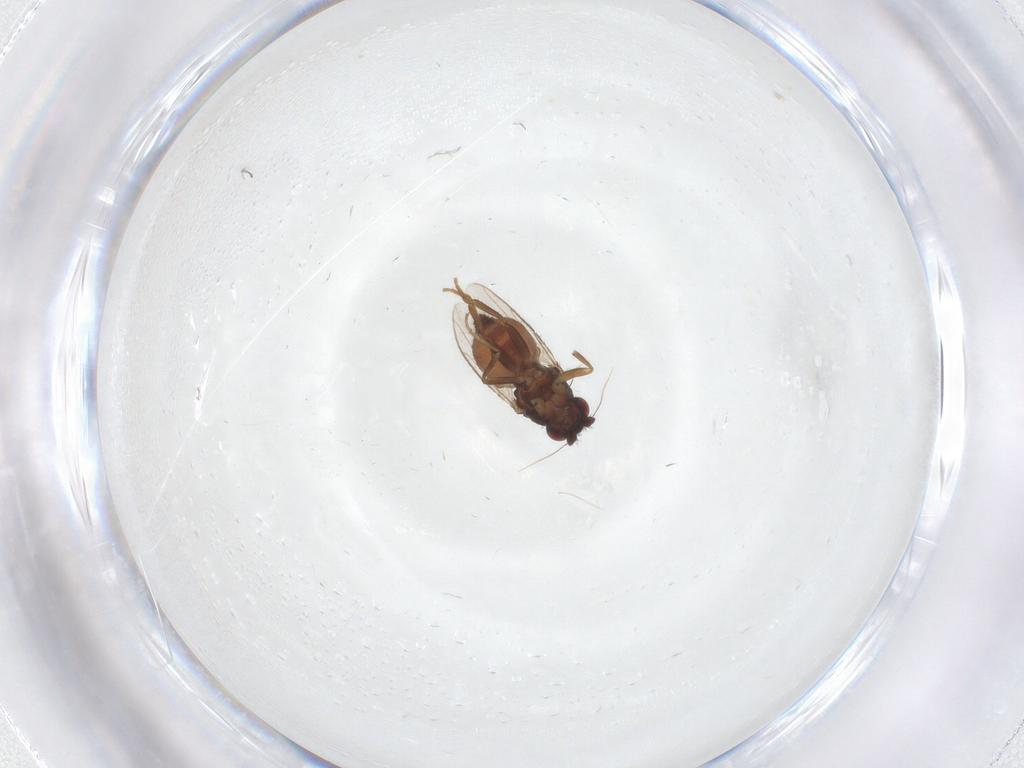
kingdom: Animalia
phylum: Arthropoda
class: Insecta
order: Diptera
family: Sphaeroceridae
